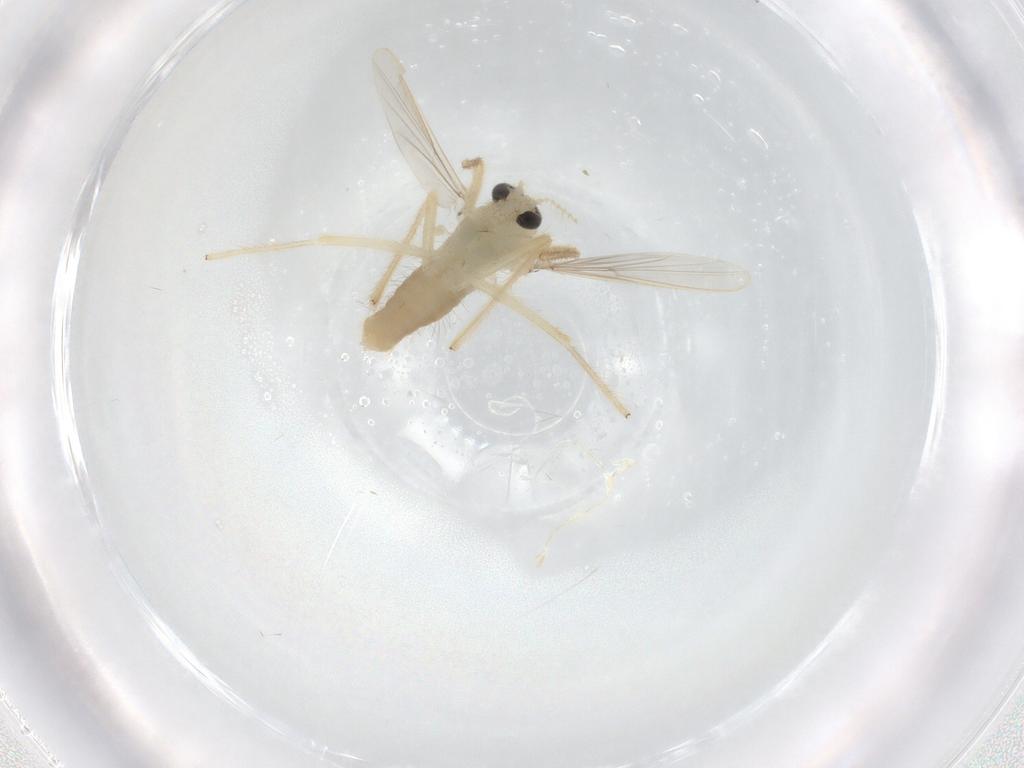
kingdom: Animalia
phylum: Arthropoda
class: Insecta
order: Diptera
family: Chironomidae
